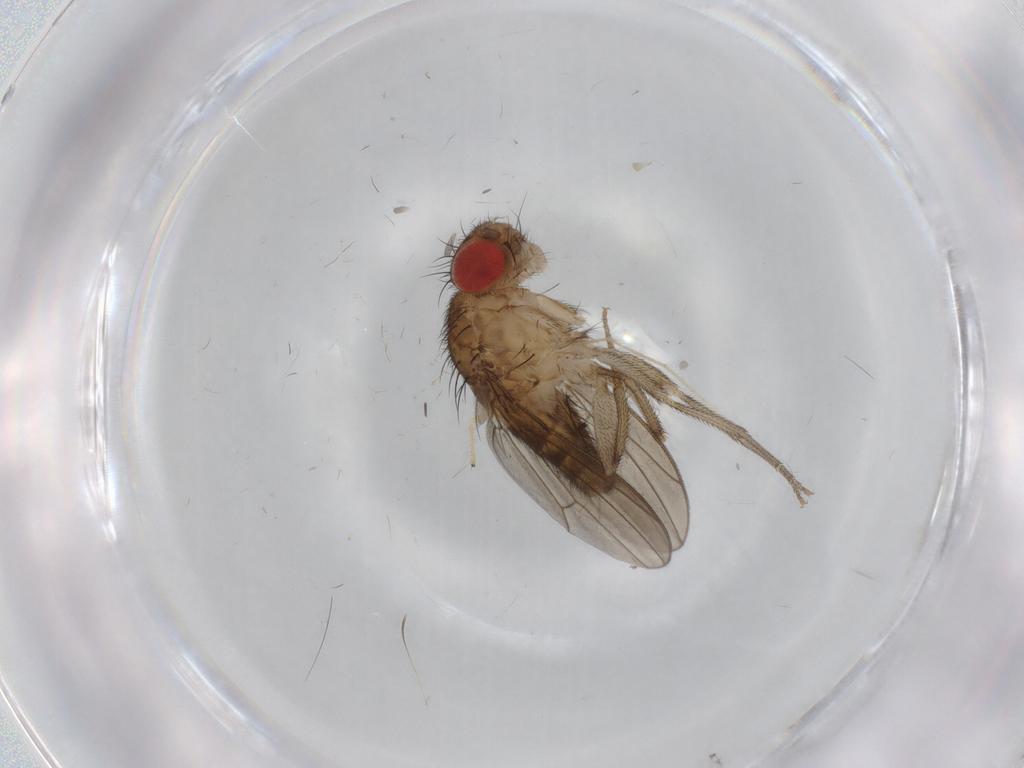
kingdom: Animalia
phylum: Arthropoda
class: Insecta
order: Diptera
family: Drosophilidae
